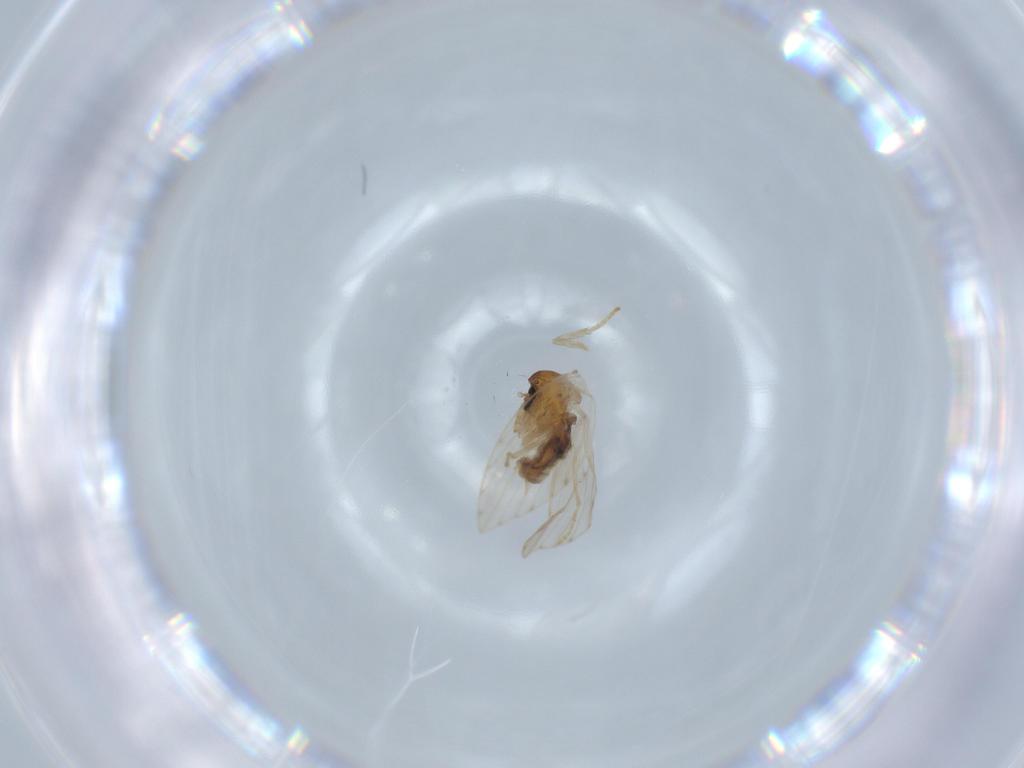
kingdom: Animalia
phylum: Arthropoda
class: Insecta
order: Diptera
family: Psychodidae
